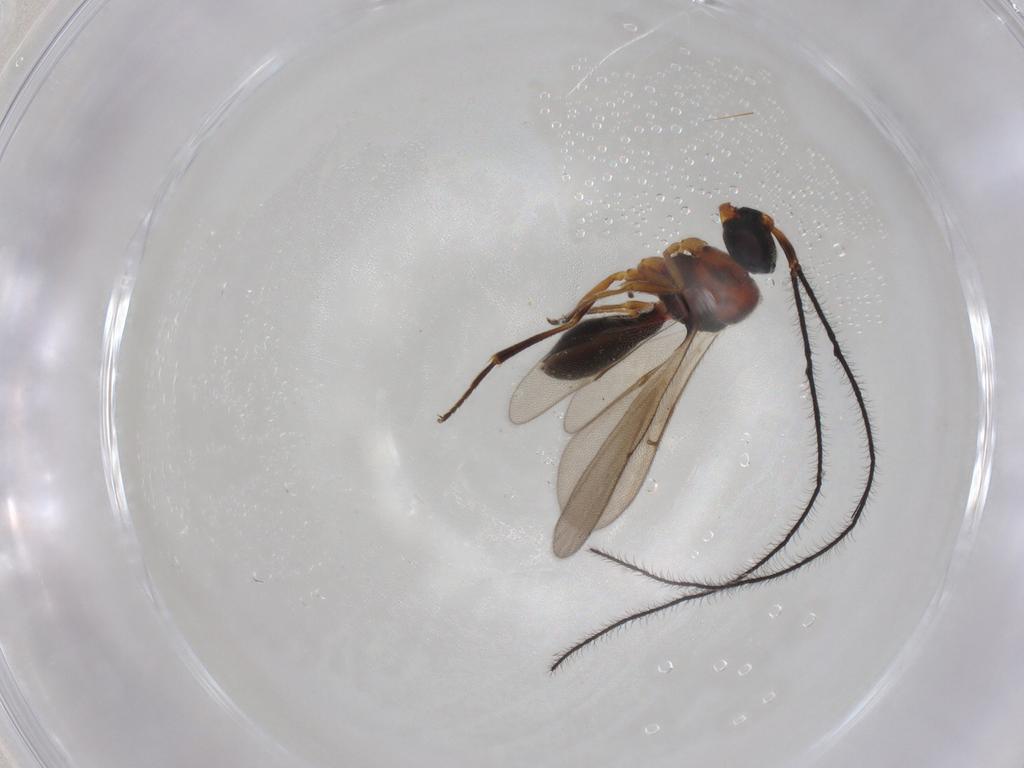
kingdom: Animalia
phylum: Arthropoda
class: Insecta
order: Hymenoptera
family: Scelionidae
